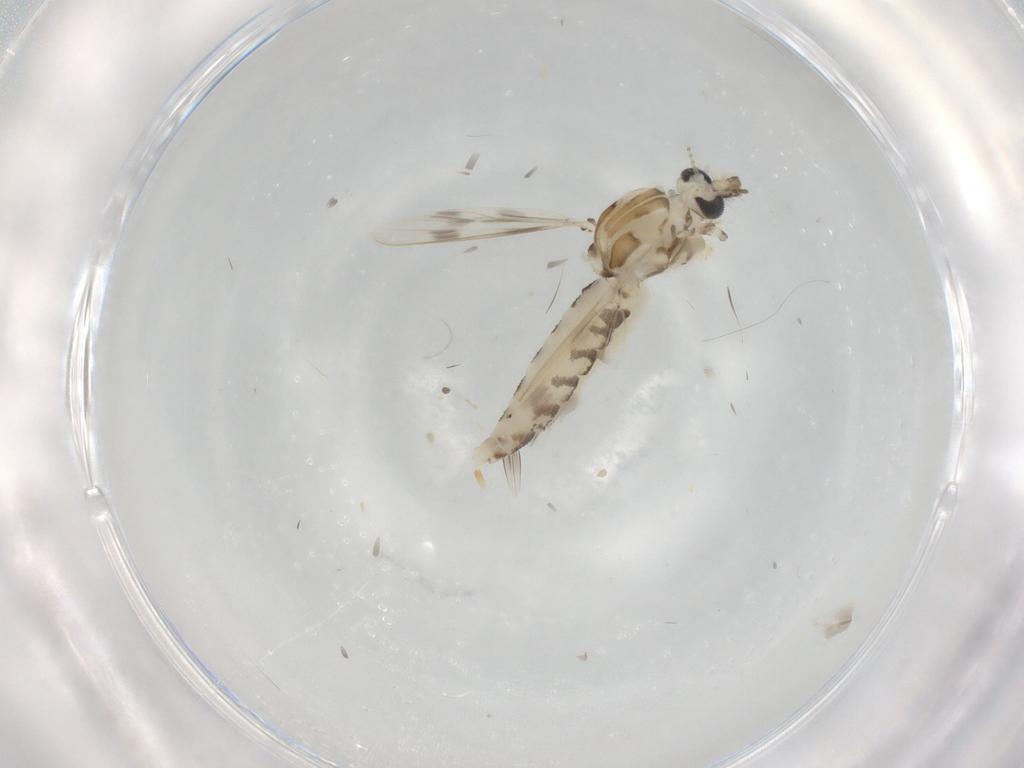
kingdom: Animalia
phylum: Arthropoda
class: Insecta
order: Diptera
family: Corethrellidae
